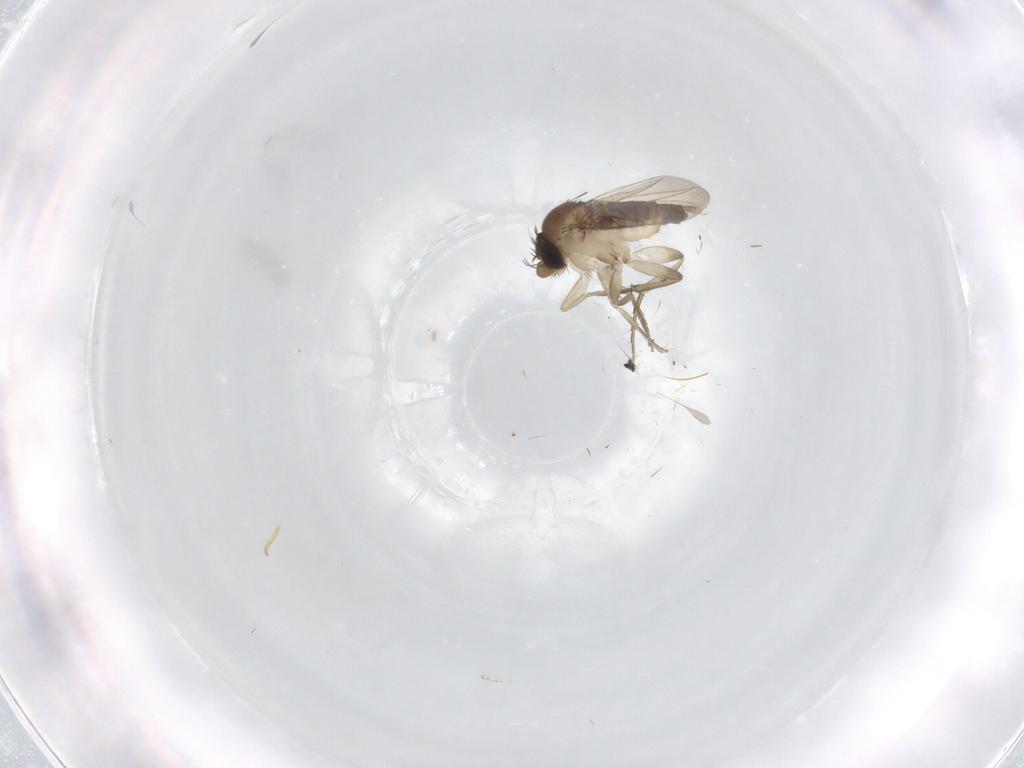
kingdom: Animalia
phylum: Arthropoda
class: Insecta
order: Diptera
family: Phoridae
